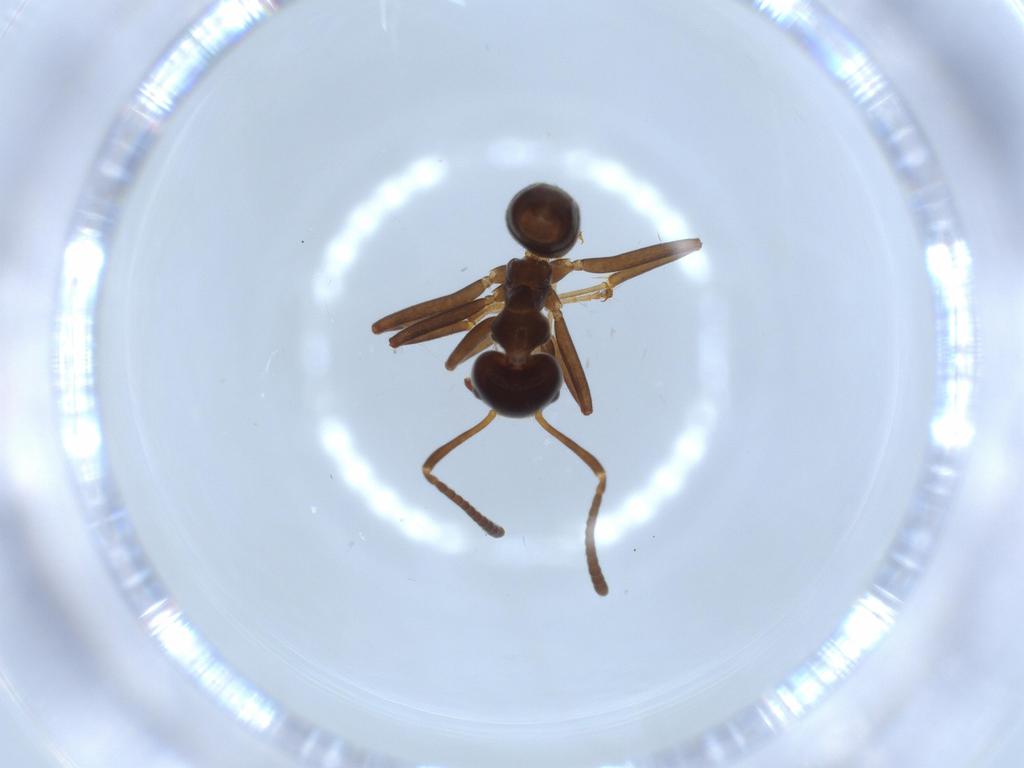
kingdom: Animalia
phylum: Arthropoda
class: Insecta
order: Hymenoptera
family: Formicidae
